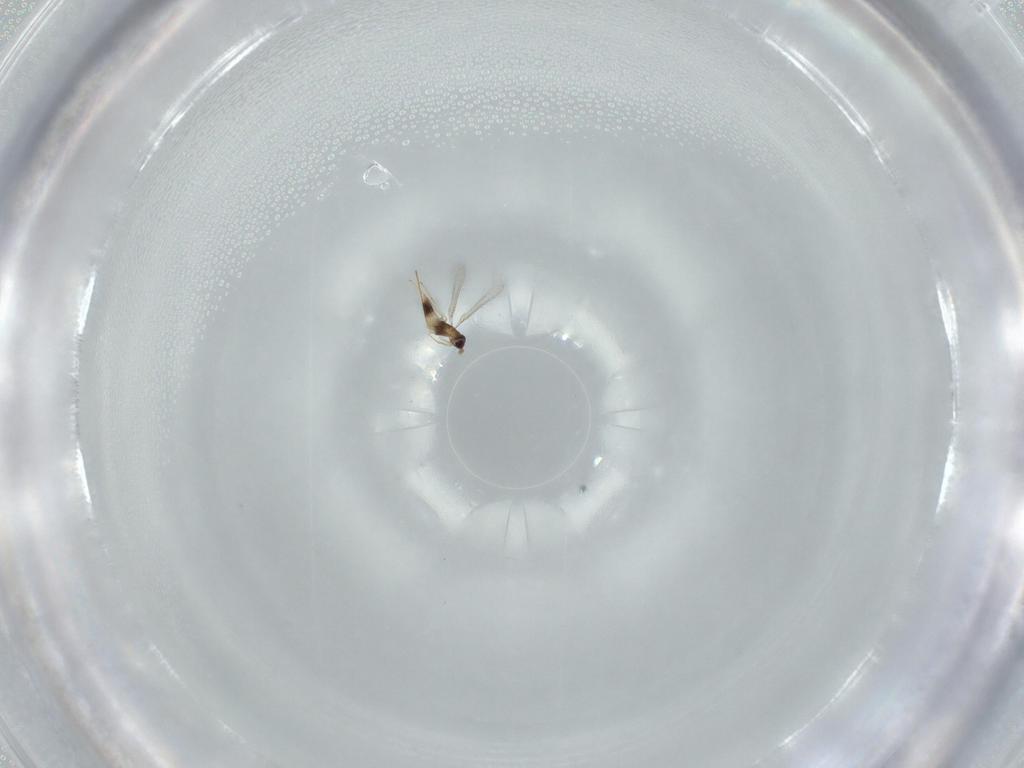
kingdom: Animalia
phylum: Arthropoda
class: Insecta
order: Hymenoptera
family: Mymaridae
